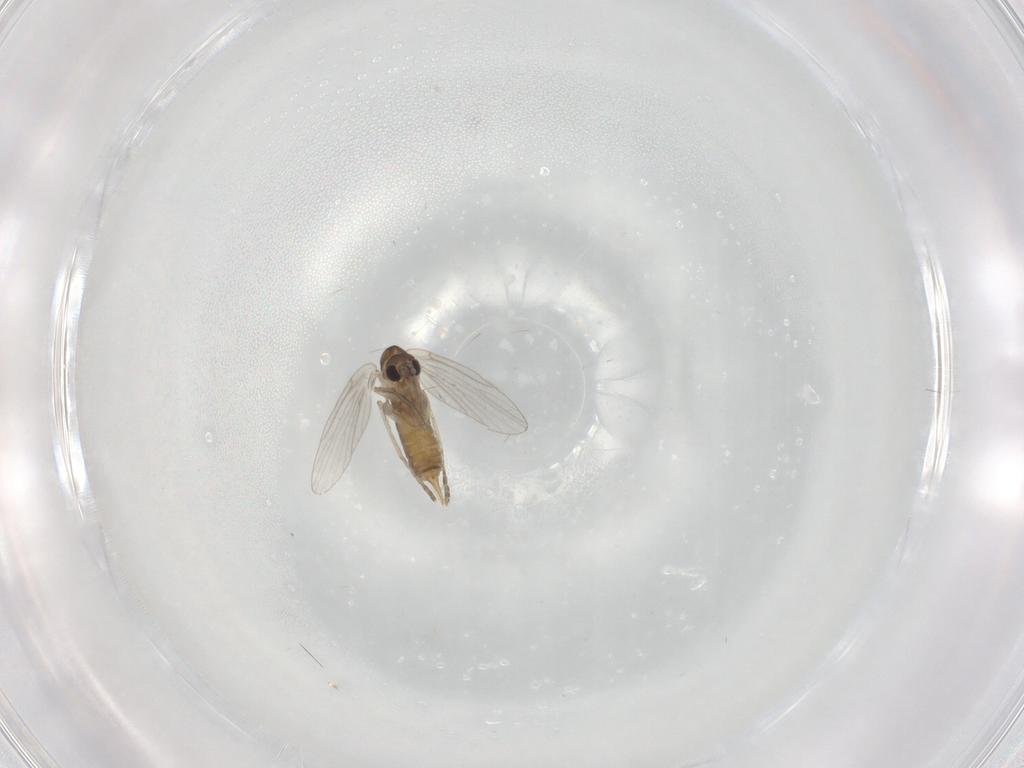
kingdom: Animalia
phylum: Arthropoda
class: Insecta
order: Diptera
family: Psychodidae
